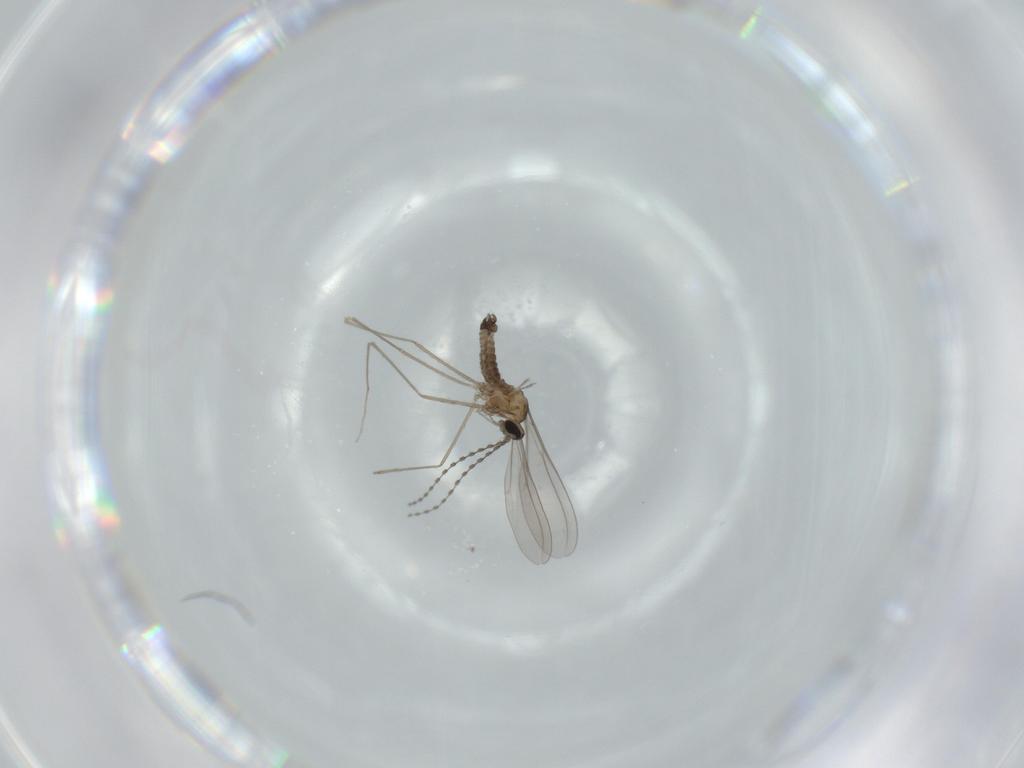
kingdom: Animalia
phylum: Arthropoda
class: Insecta
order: Diptera
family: Cecidomyiidae
